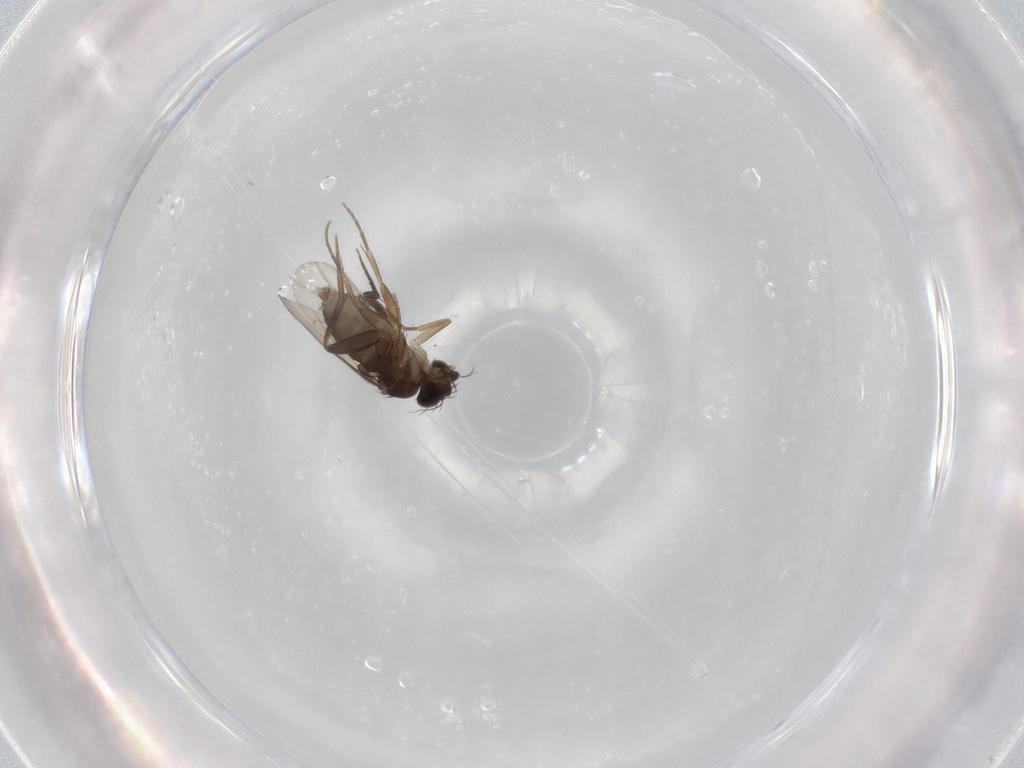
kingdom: Animalia
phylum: Arthropoda
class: Insecta
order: Diptera
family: Phoridae
